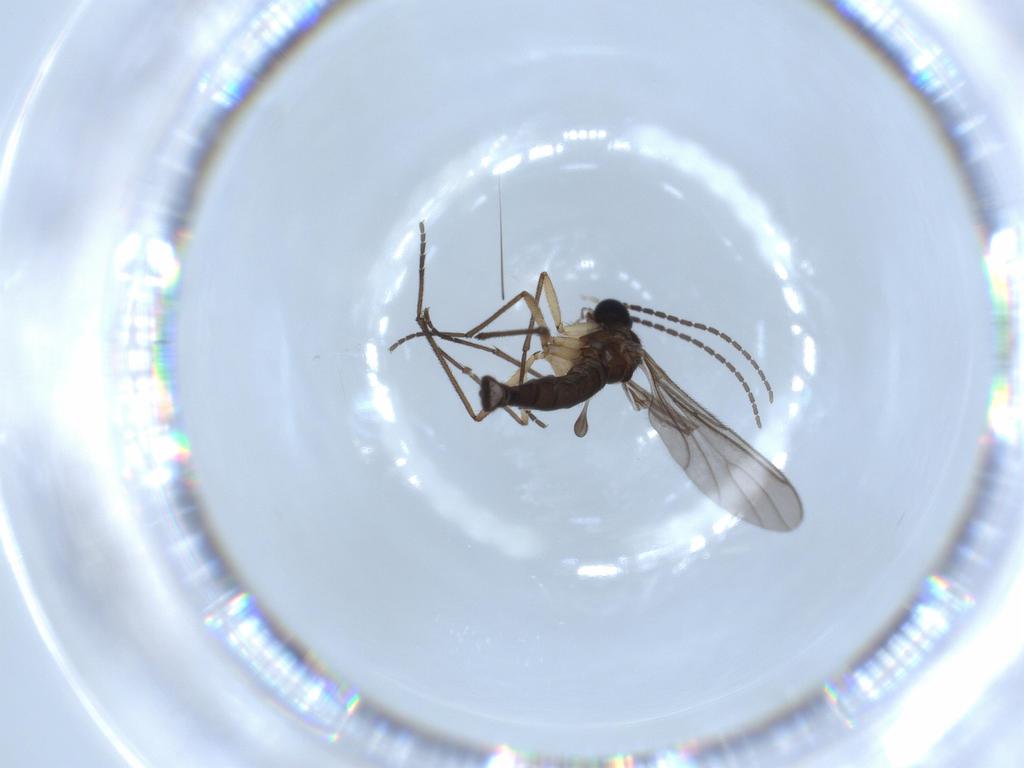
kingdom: Animalia
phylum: Arthropoda
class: Insecta
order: Diptera
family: Sciaridae
